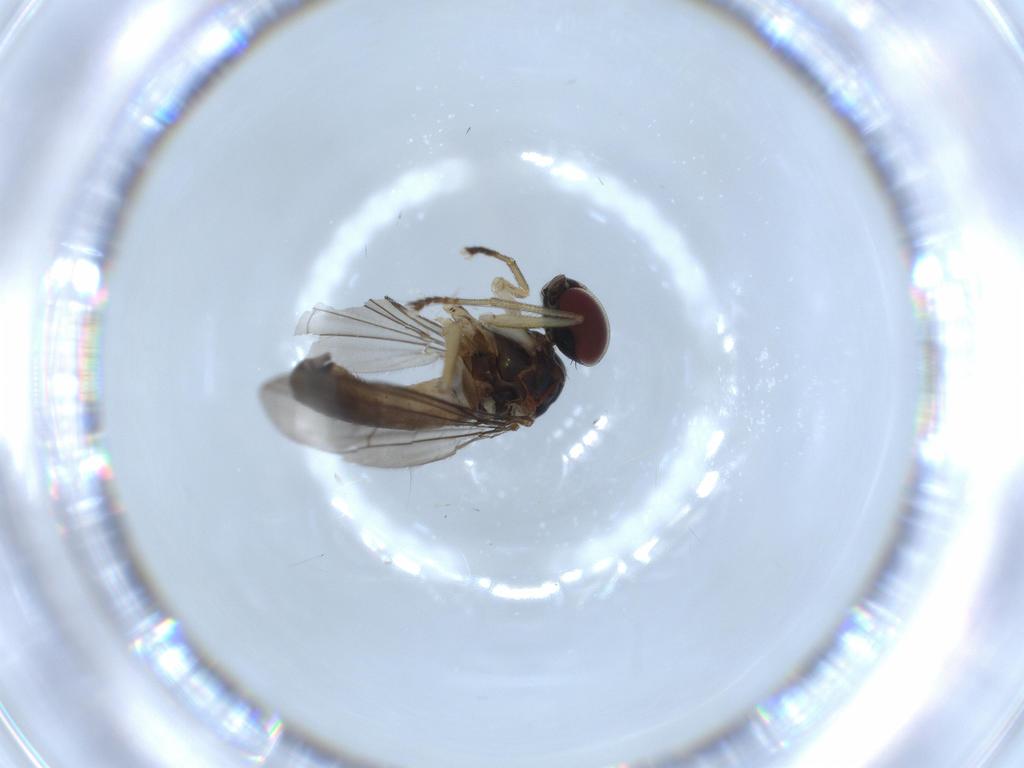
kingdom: Animalia
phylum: Arthropoda
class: Insecta
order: Diptera
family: Dolichopodidae
